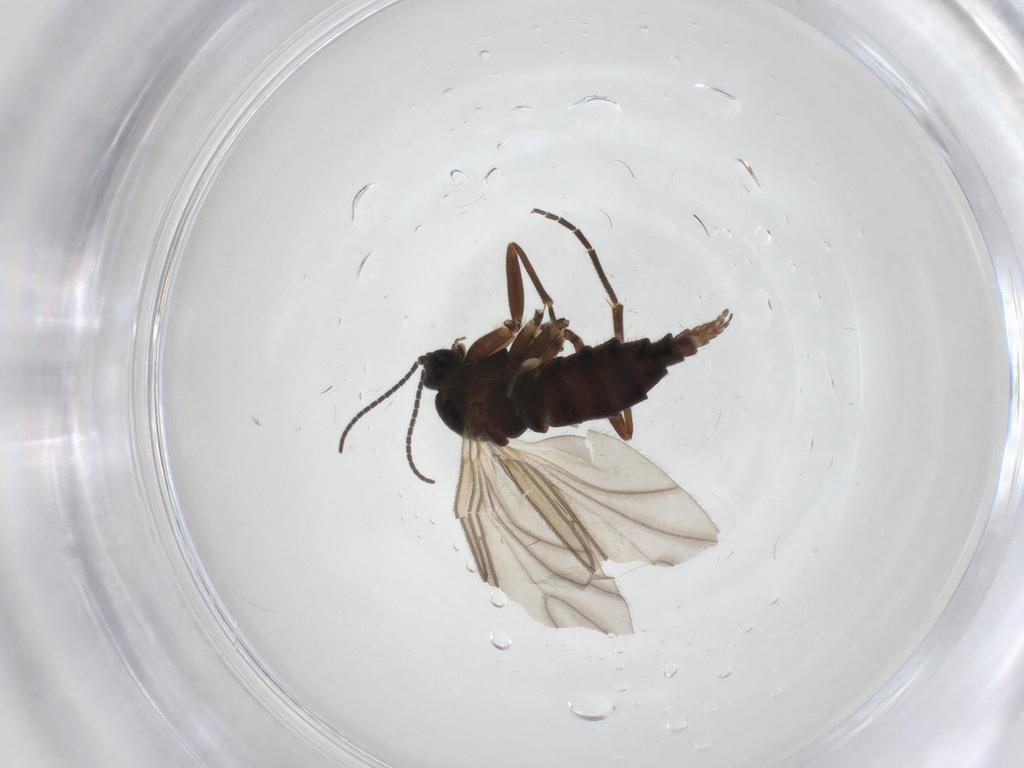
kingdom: Animalia
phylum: Arthropoda
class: Insecta
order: Diptera
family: Sciaridae
